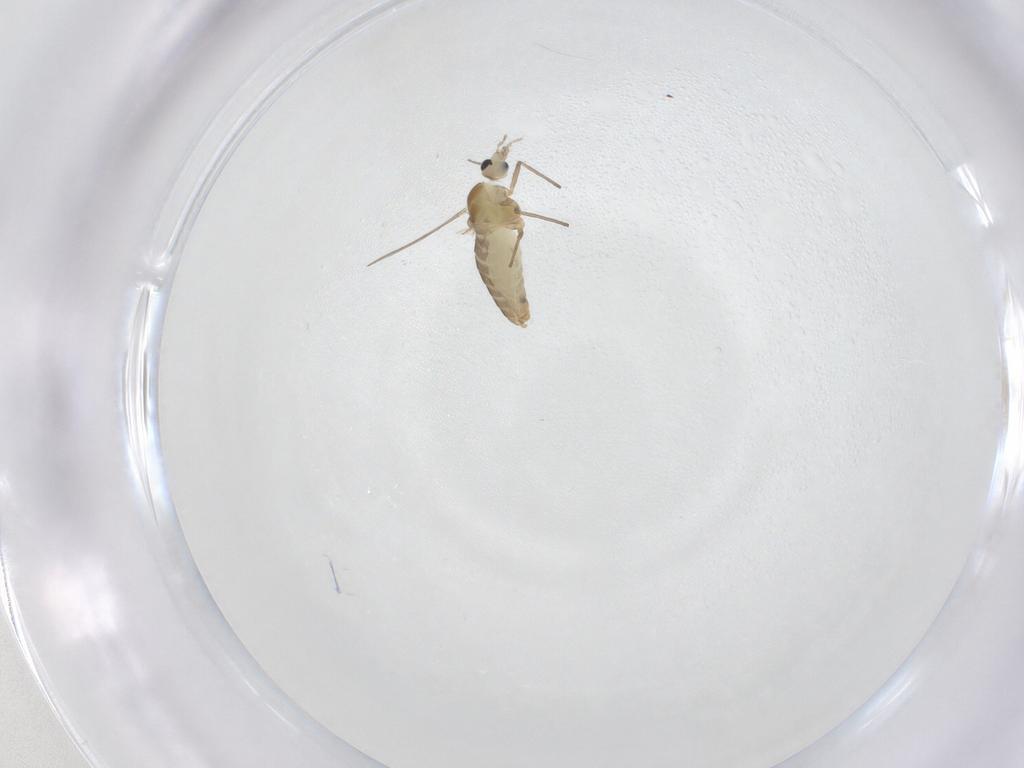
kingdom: Animalia
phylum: Arthropoda
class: Insecta
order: Diptera
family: Chironomidae
